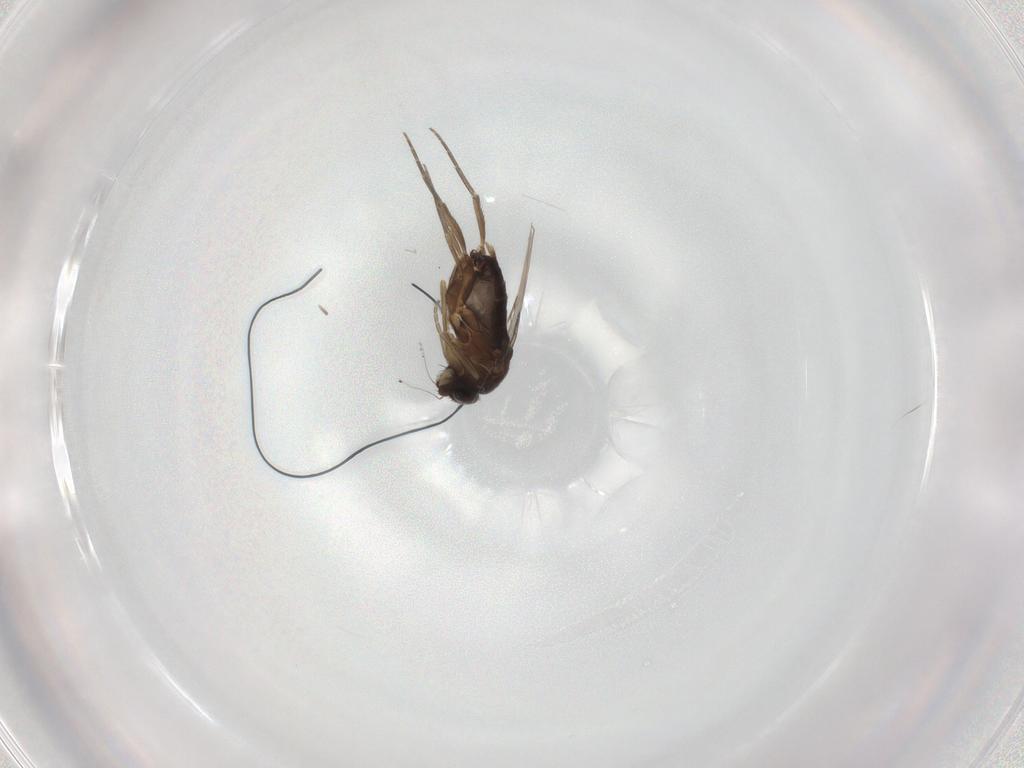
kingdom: Animalia
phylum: Arthropoda
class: Insecta
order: Diptera
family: Phoridae
